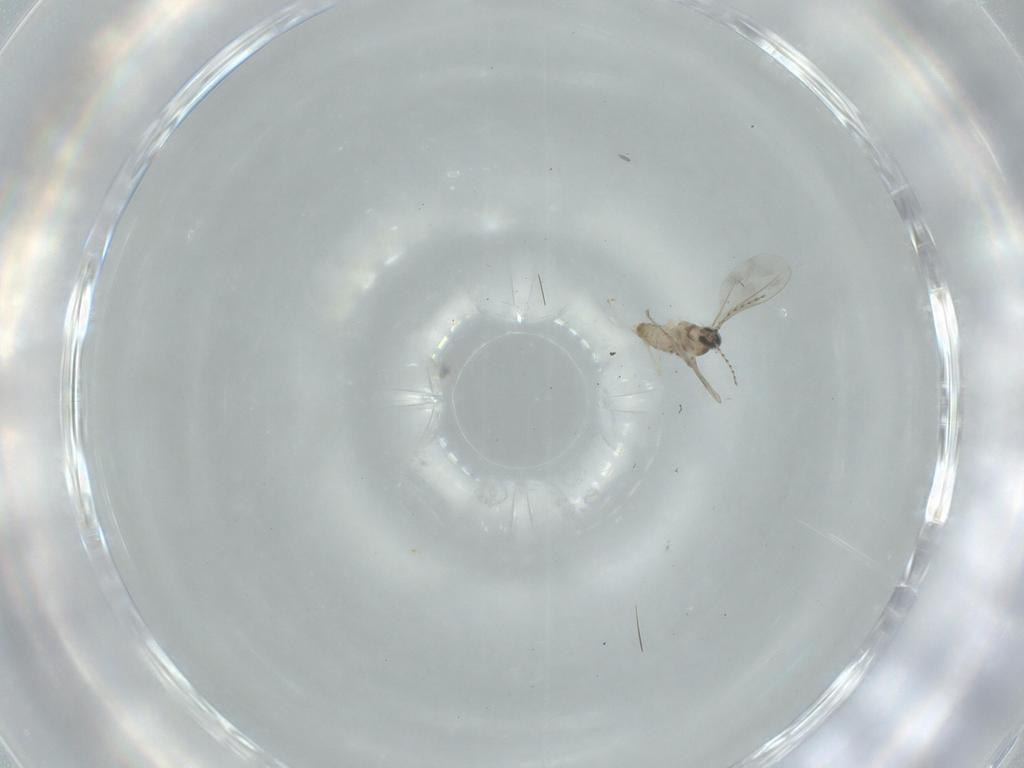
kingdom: Animalia
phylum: Arthropoda
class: Insecta
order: Diptera
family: Cecidomyiidae
